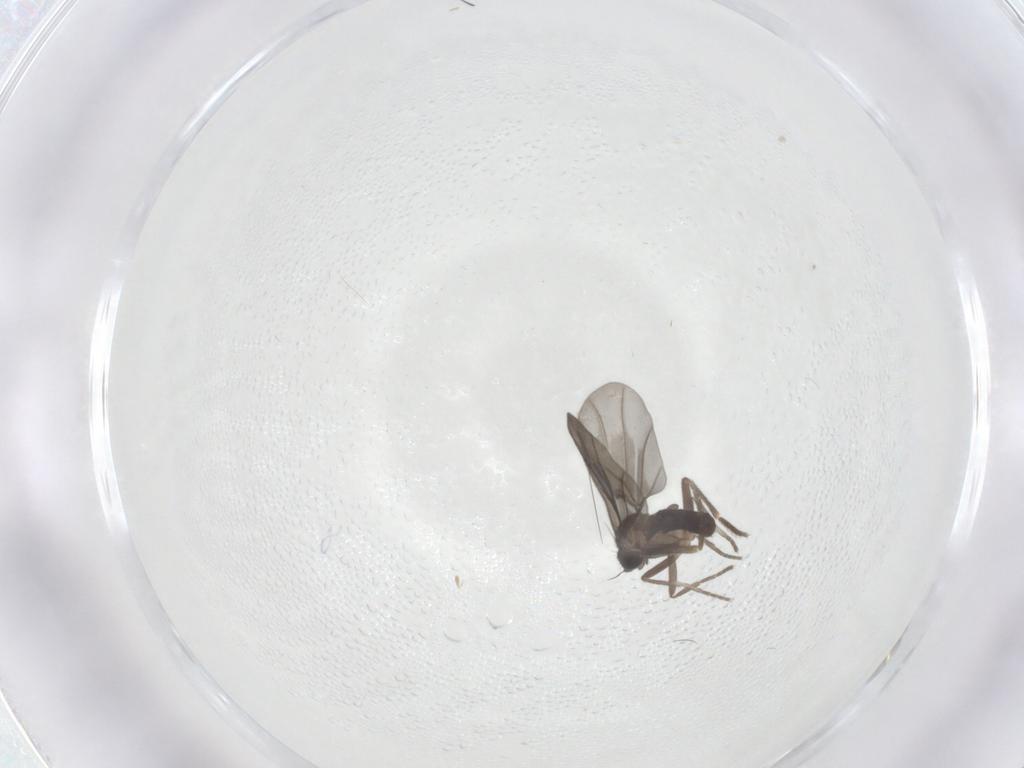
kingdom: Animalia
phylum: Arthropoda
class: Insecta
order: Diptera
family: Phoridae
